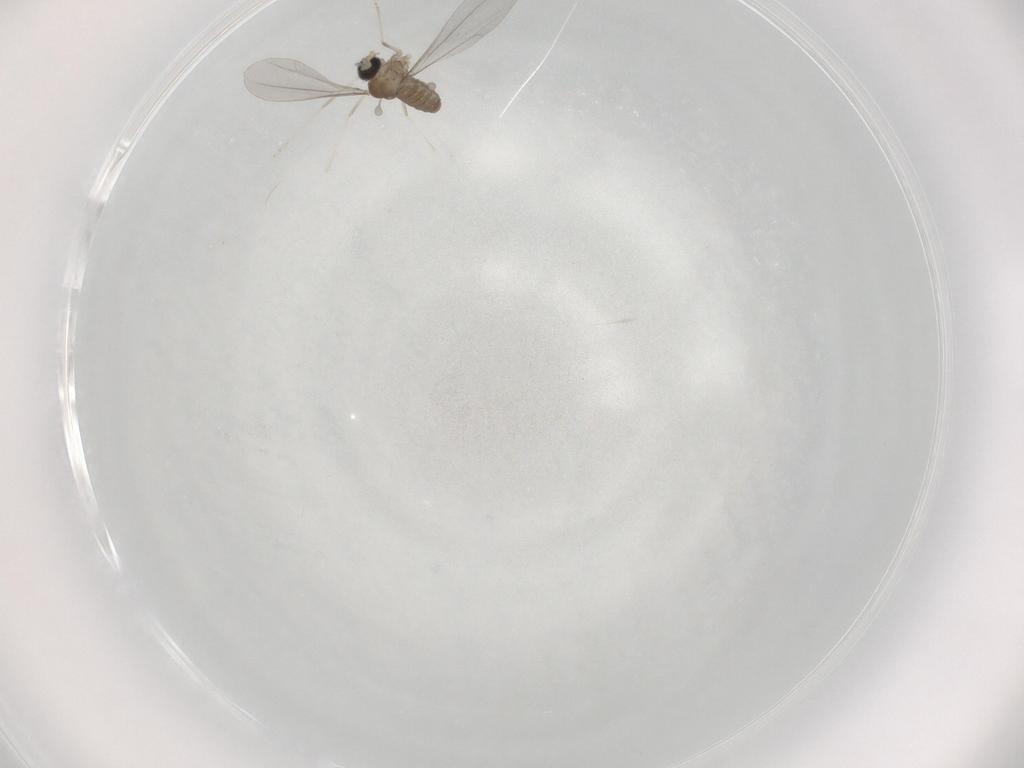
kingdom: Animalia
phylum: Arthropoda
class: Insecta
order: Diptera
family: Cecidomyiidae
